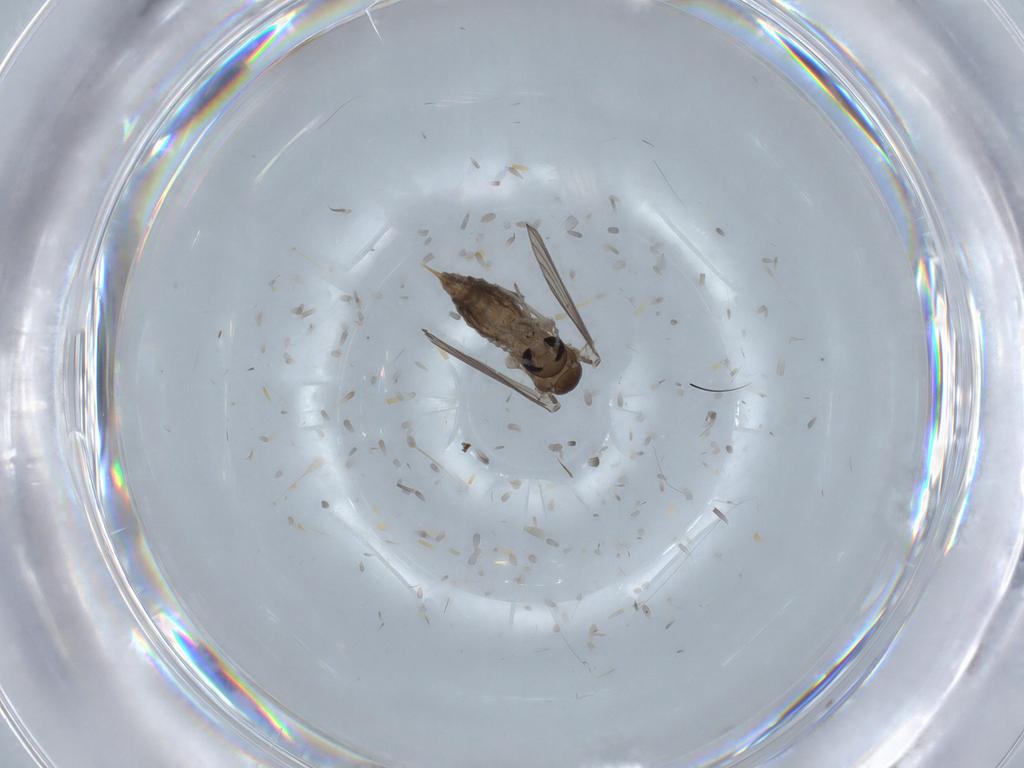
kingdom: Animalia
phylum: Arthropoda
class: Insecta
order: Diptera
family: Psychodidae
